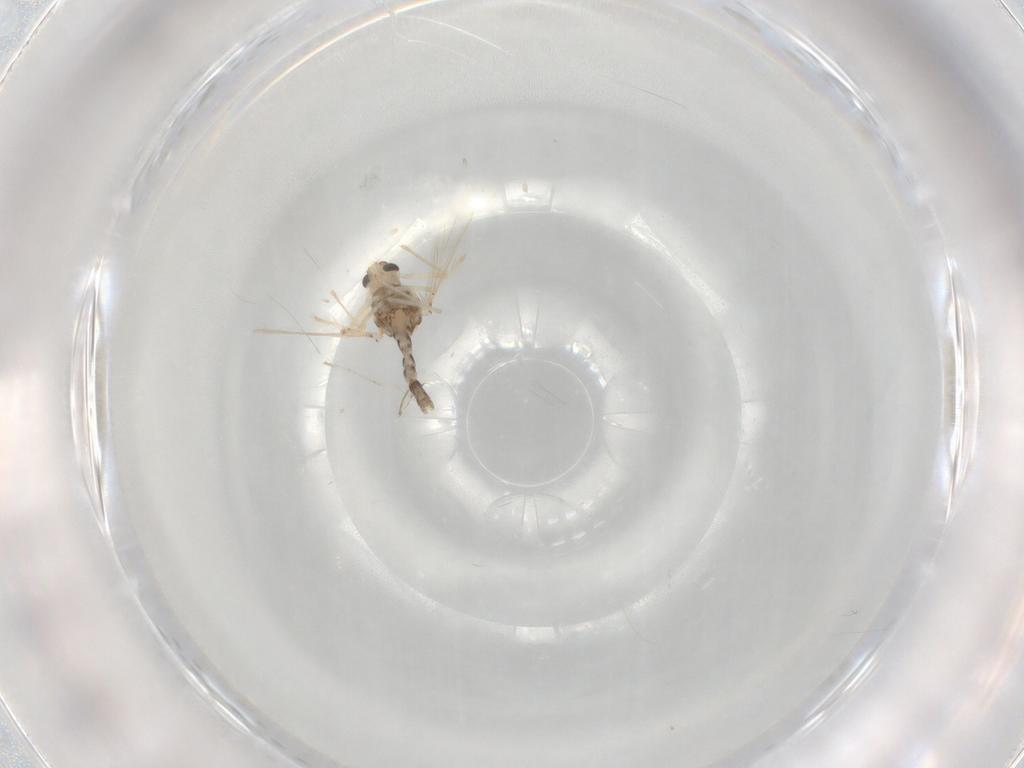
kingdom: Animalia
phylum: Arthropoda
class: Insecta
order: Diptera
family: Chironomidae
